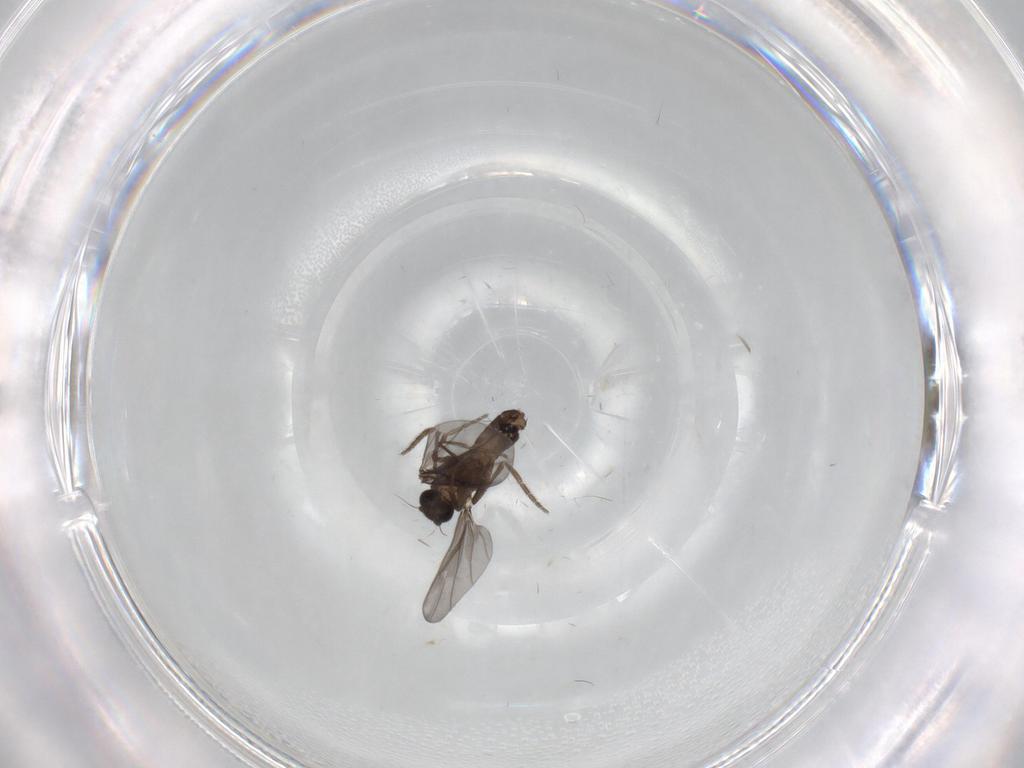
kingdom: Animalia
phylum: Arthropoda
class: Insecta
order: Diptera
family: Phoridae
